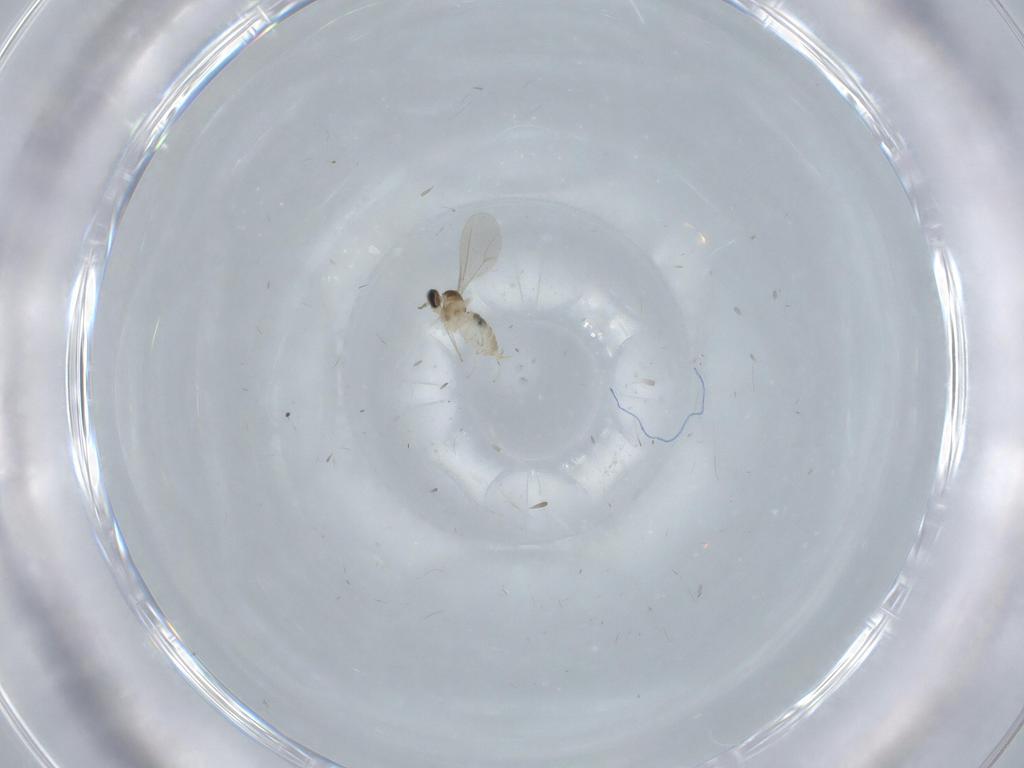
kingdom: Animalia
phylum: Arthropoda
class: Insecta
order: Diptera
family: Cecidomyiidae
